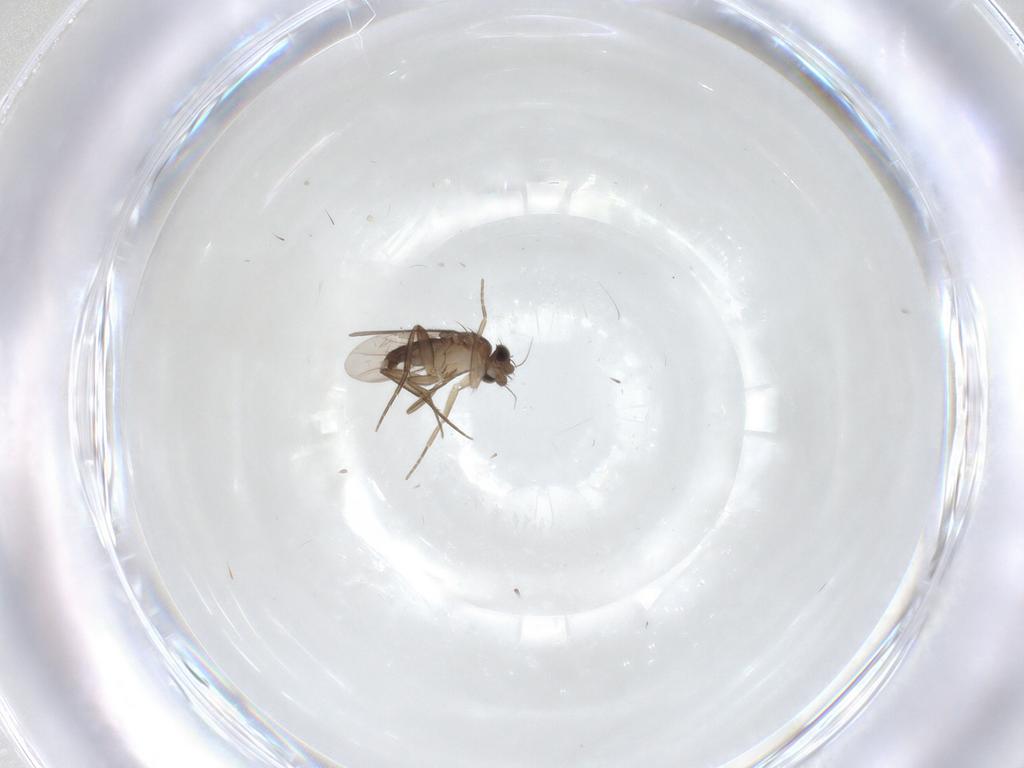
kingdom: Animalia
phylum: Arthropoda
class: Insecta
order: Diptera
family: Phoridae
